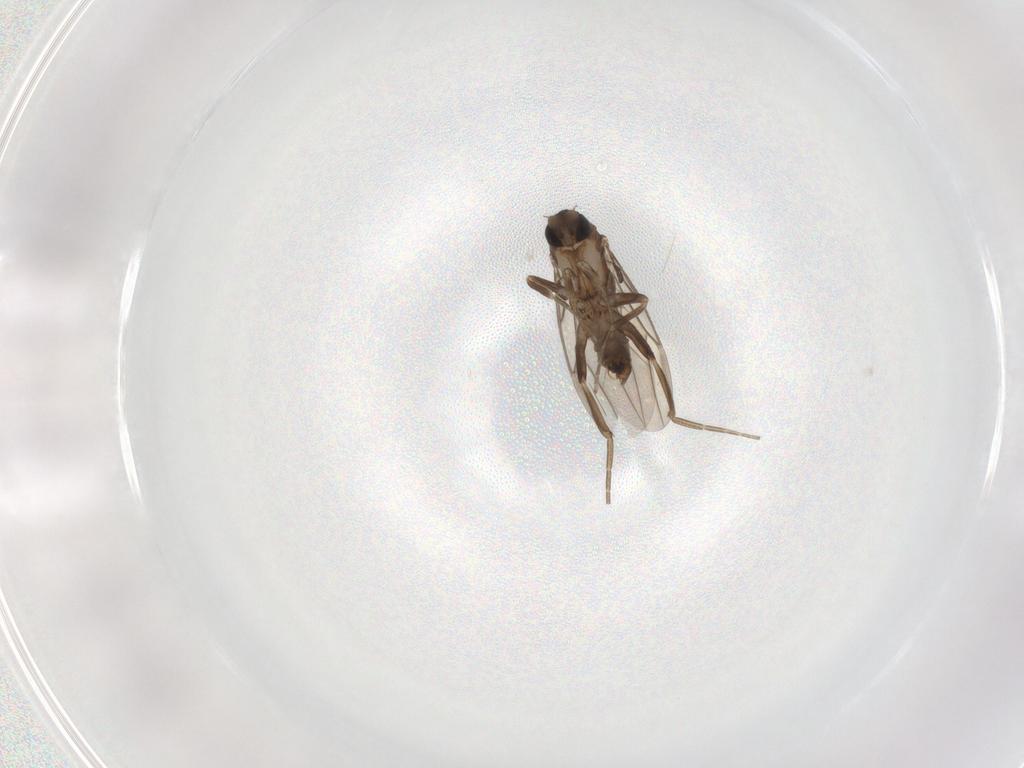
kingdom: Animalia
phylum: Arthropoda
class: Insecta
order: Diptera
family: Phoridae
